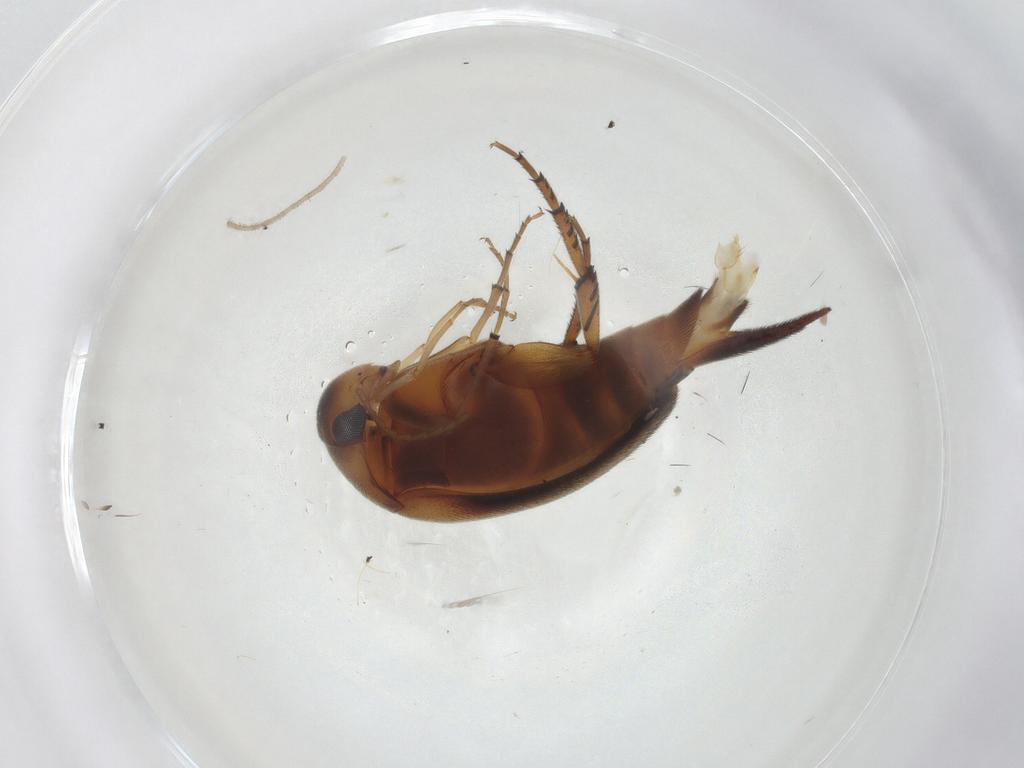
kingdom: Animalia
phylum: Arthropoda
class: Insecta
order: Coleoptera
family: Mordellidae
